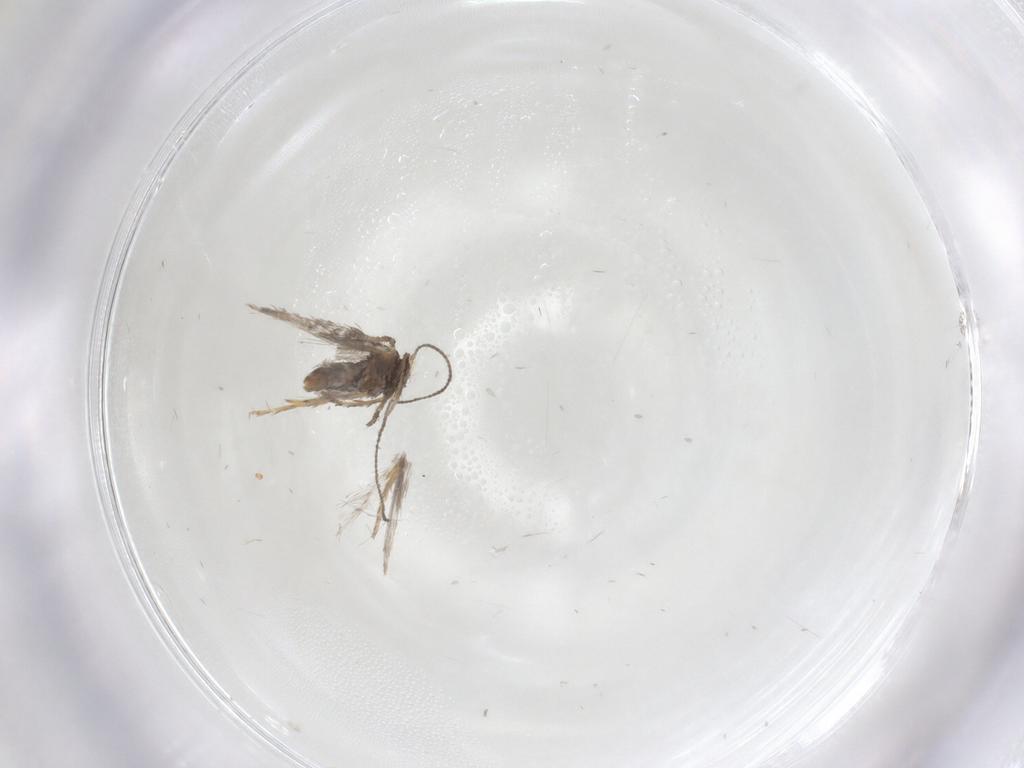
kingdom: Animalia
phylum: Arthropoda
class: Insecta
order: Lepidoptera
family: Nepticulidae
